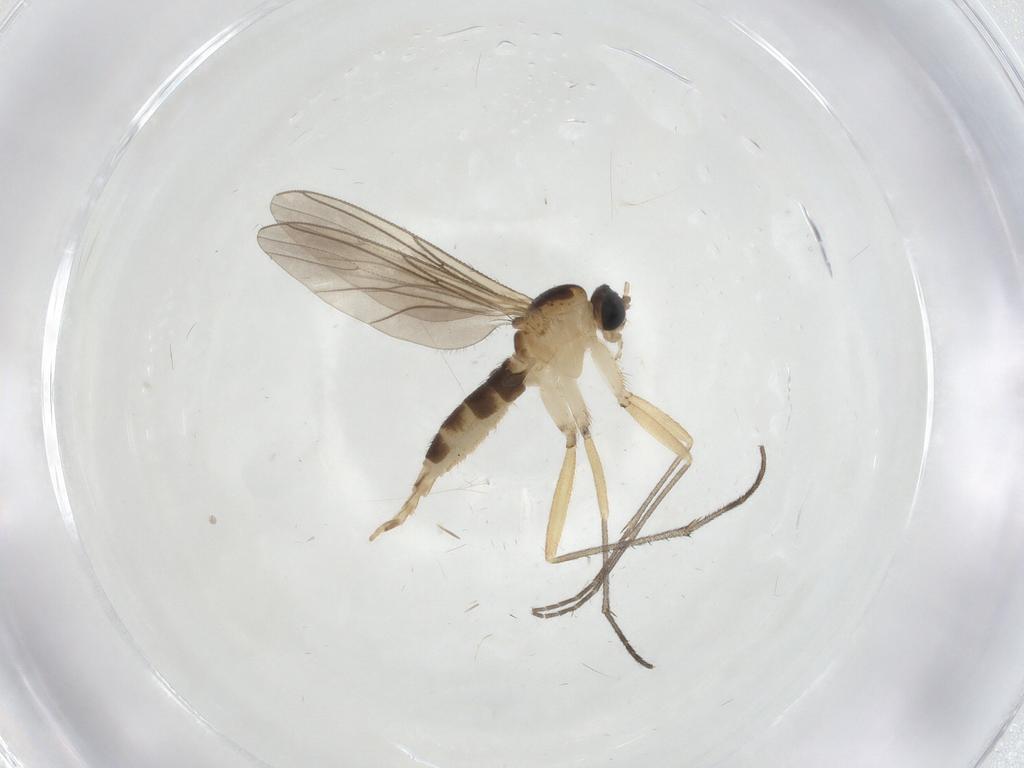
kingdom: Animalia
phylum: Arthropoda
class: Insecta
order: Diptera
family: Sciaridae
